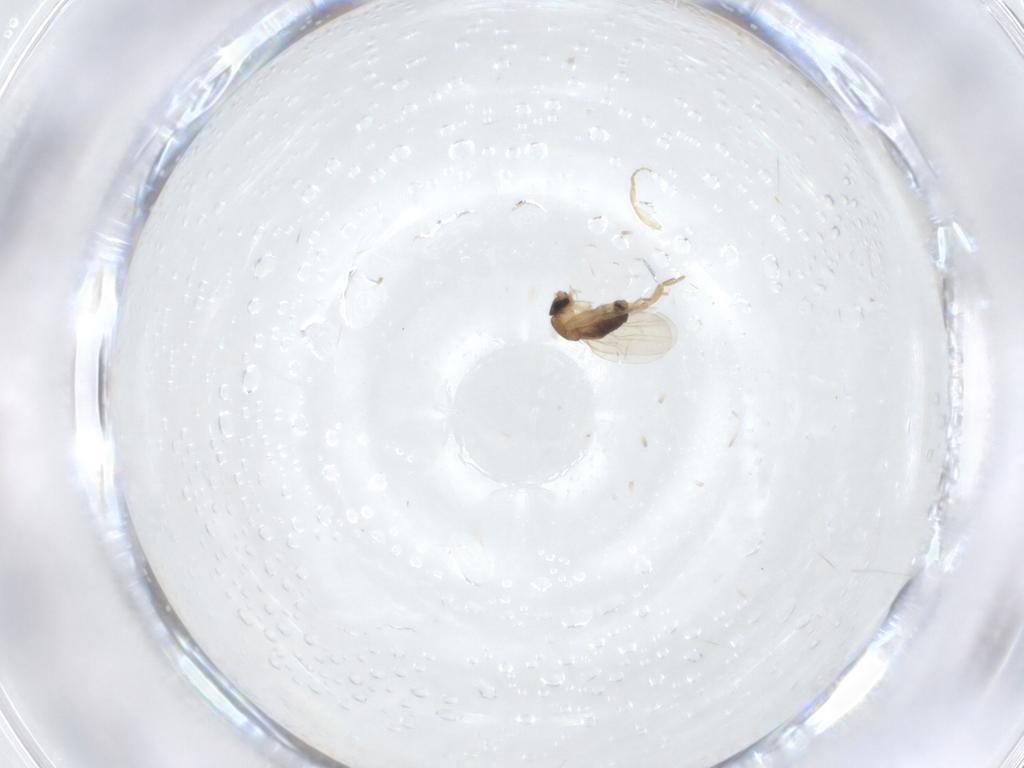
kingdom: Animalia
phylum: Arthropoda
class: Insecta
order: Diptera
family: Phoridae
